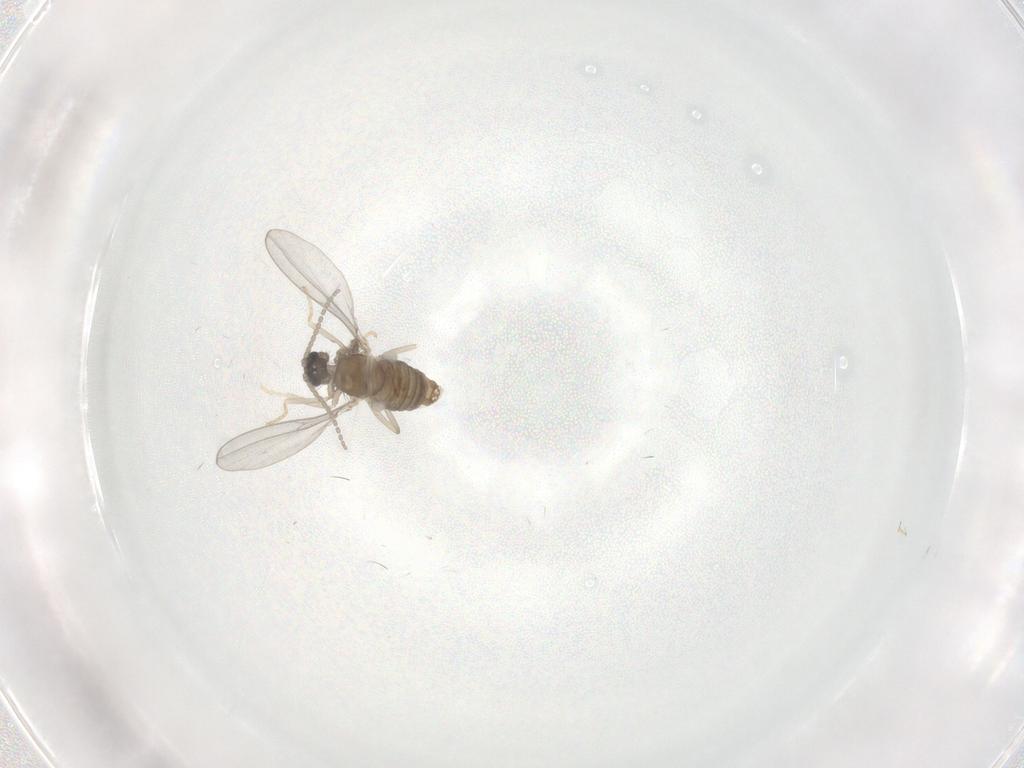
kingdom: Animalia
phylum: Arthropoda
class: Insecta
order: Diptera
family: Cecidomyiidae
